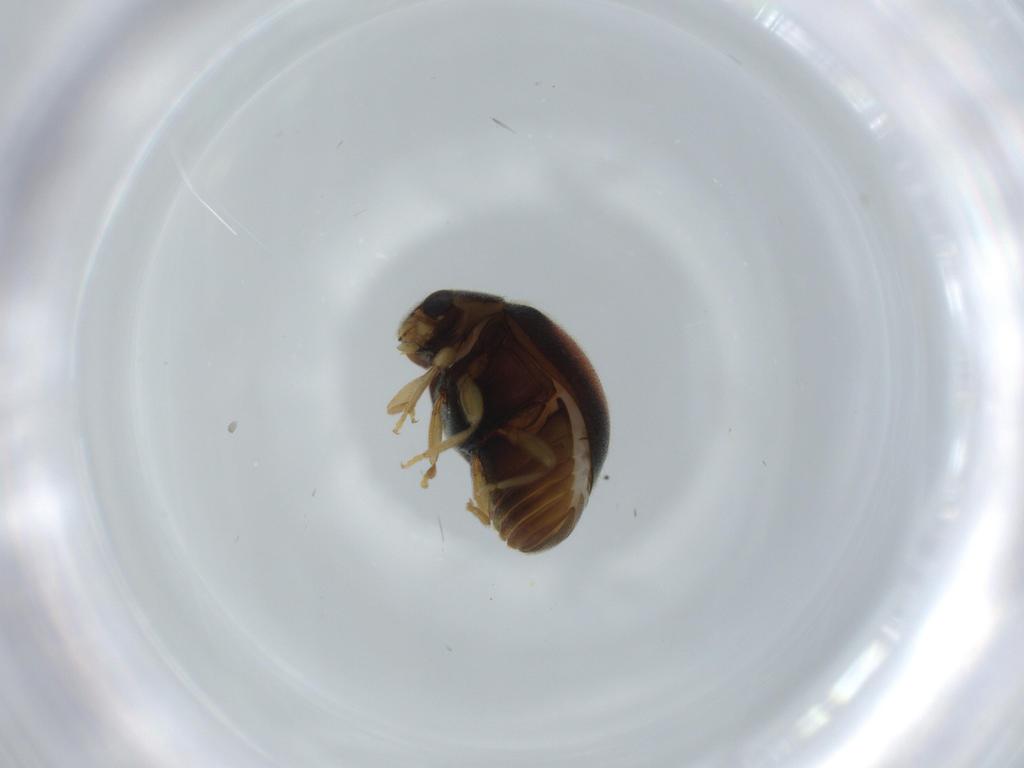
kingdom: Animalia
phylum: Arthropoda
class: Insecta
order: Coleoptera
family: Coccinellidae
